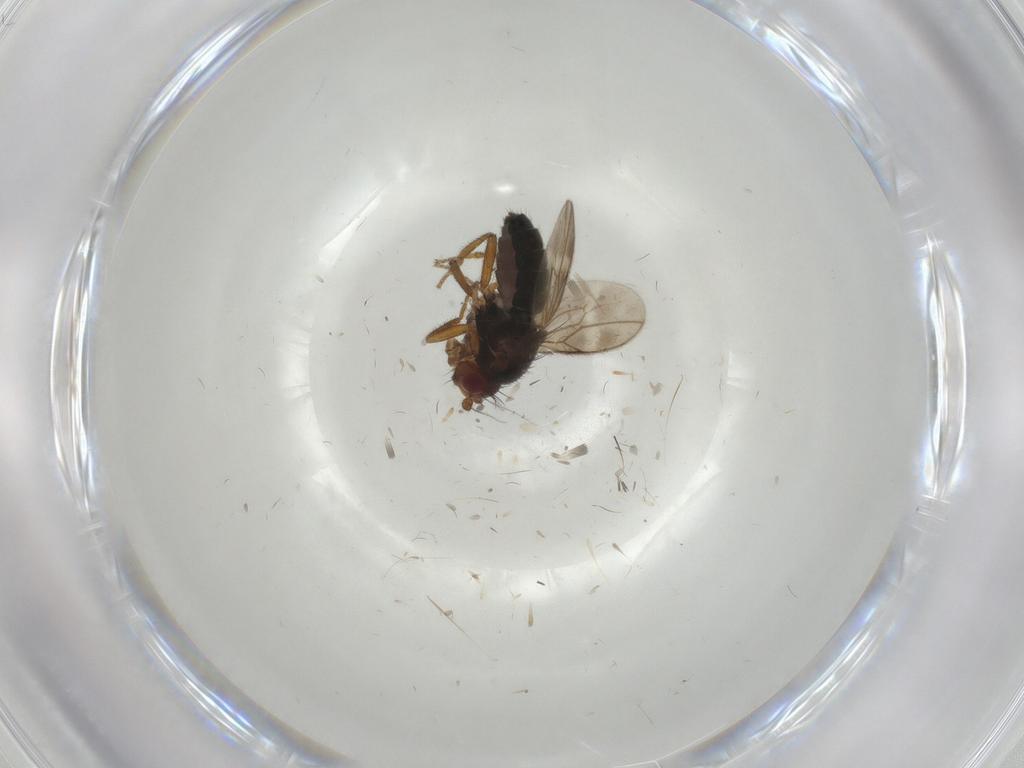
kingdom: Animalia
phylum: Arthropoda
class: Insecta
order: Diptera
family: Sphaeroceridae
